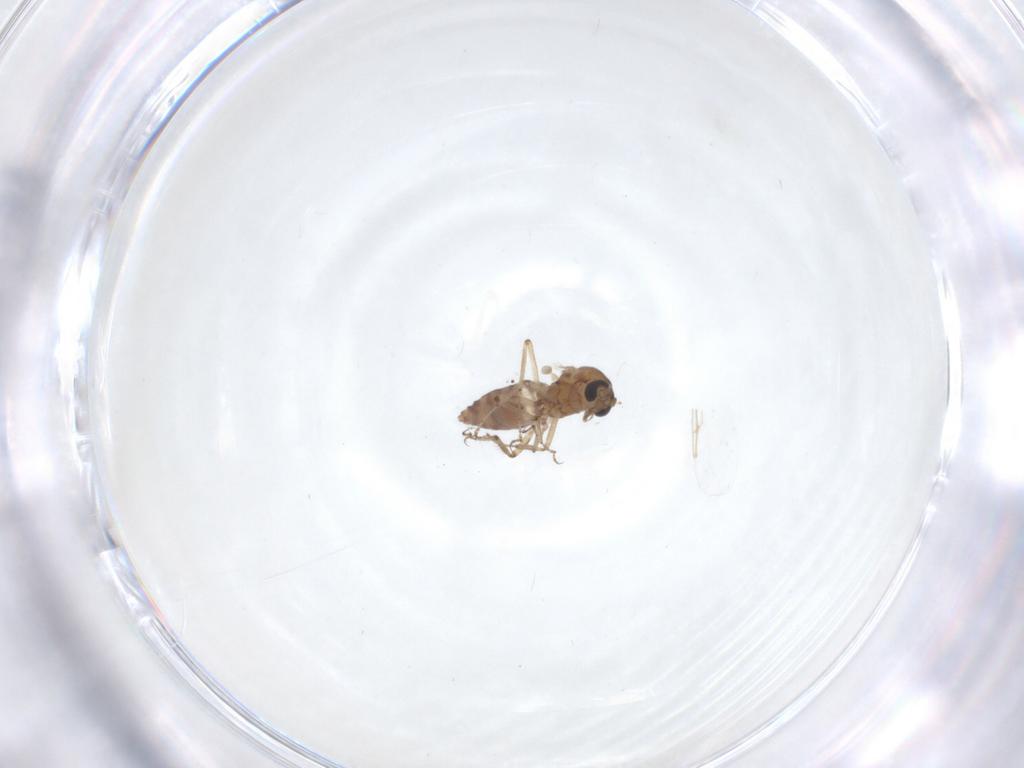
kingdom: Animalia
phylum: Arthropoda
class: Insecta
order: Diptera
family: Ceratopogonidae
